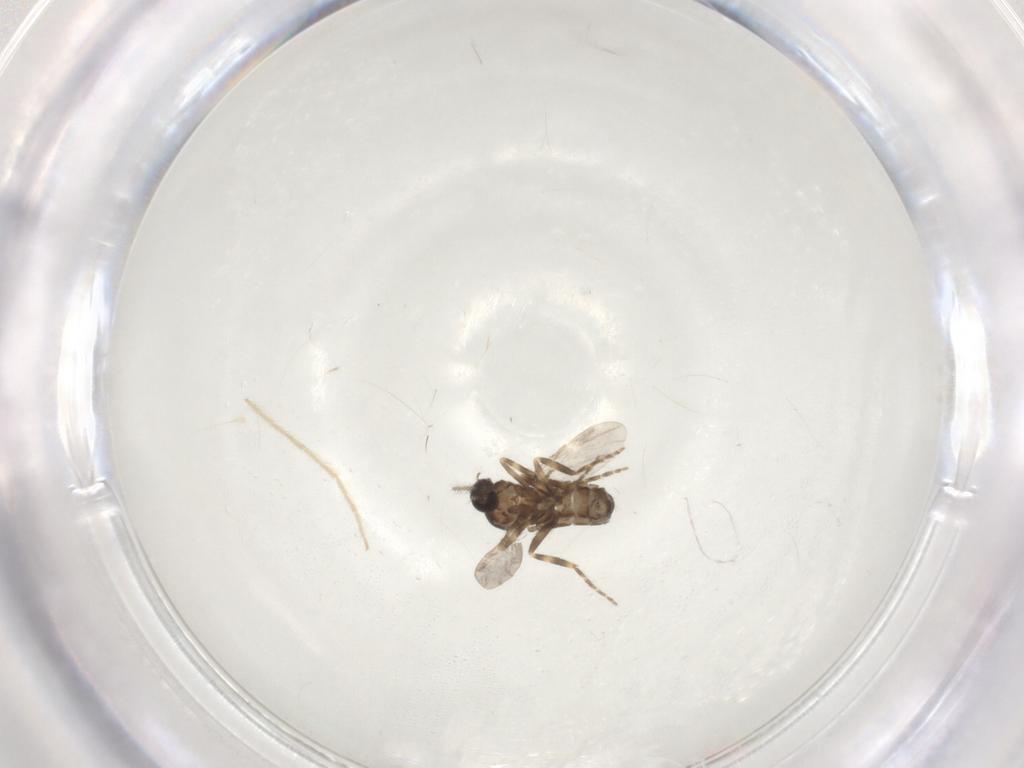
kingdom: Animalia
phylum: Arthropoda
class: Insecta
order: Diptera
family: Ceratopogonidae
